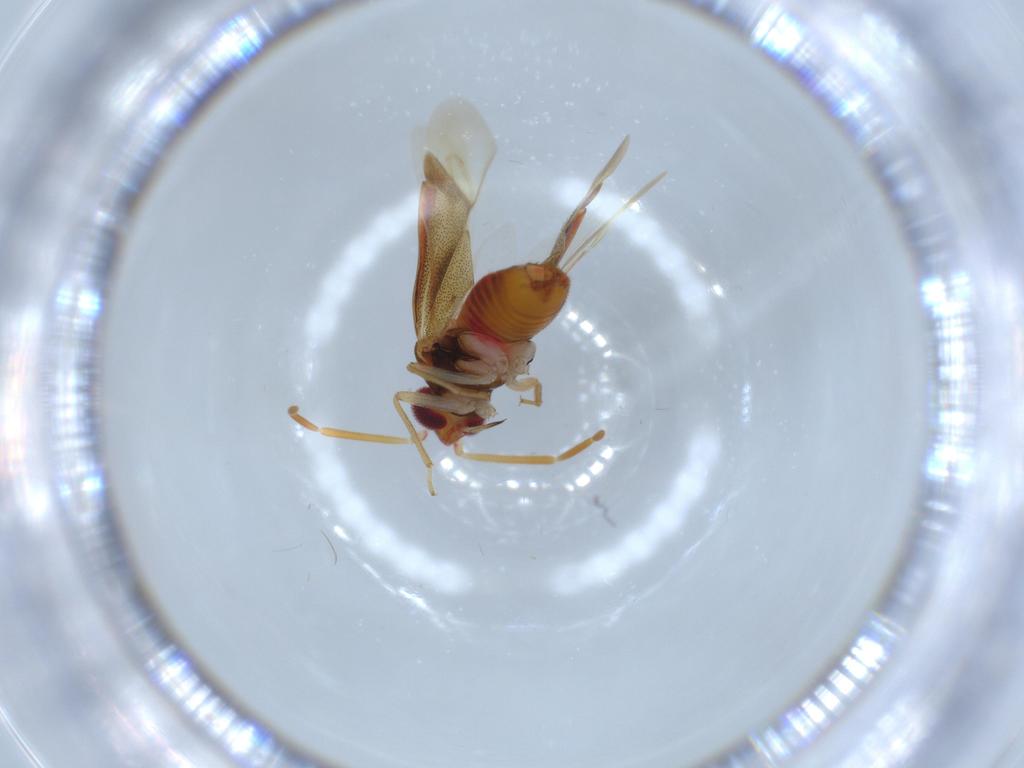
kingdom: Animalia
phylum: Arthropoda
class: Insecta
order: Hemiptera
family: Miridae
